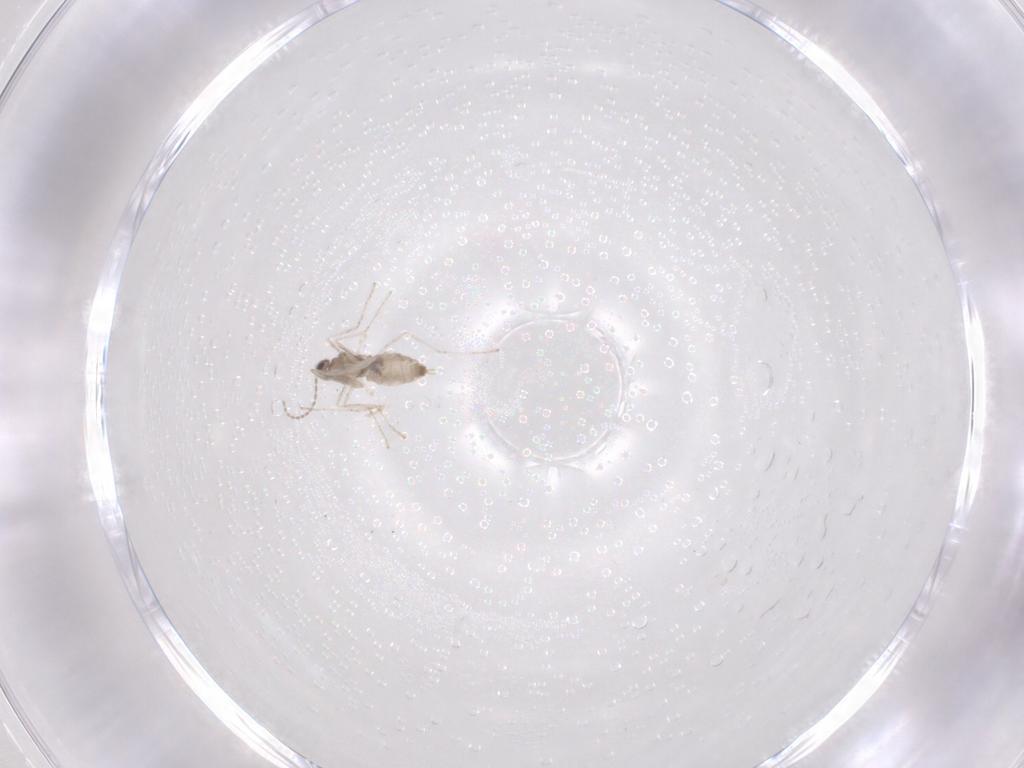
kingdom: Animalia
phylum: Arthropoda
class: Insecta
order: Diptera
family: Cecidomyiidae
